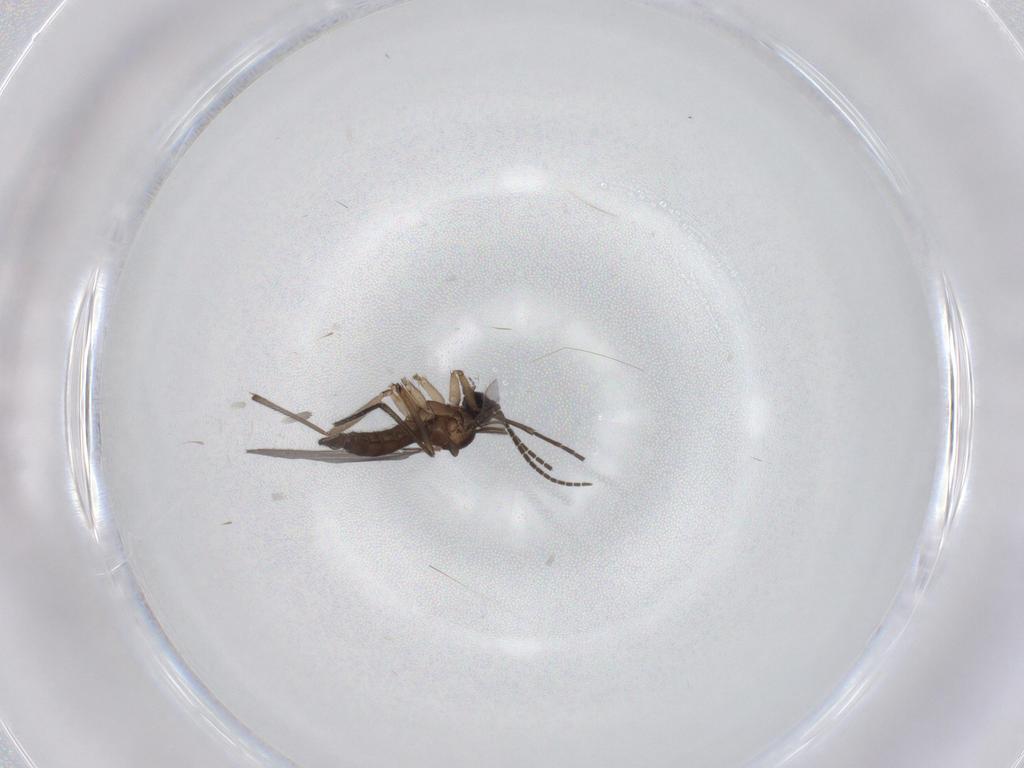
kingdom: Animalia
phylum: Arthropoda
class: Insecta
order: Diptera
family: Sciaridae
